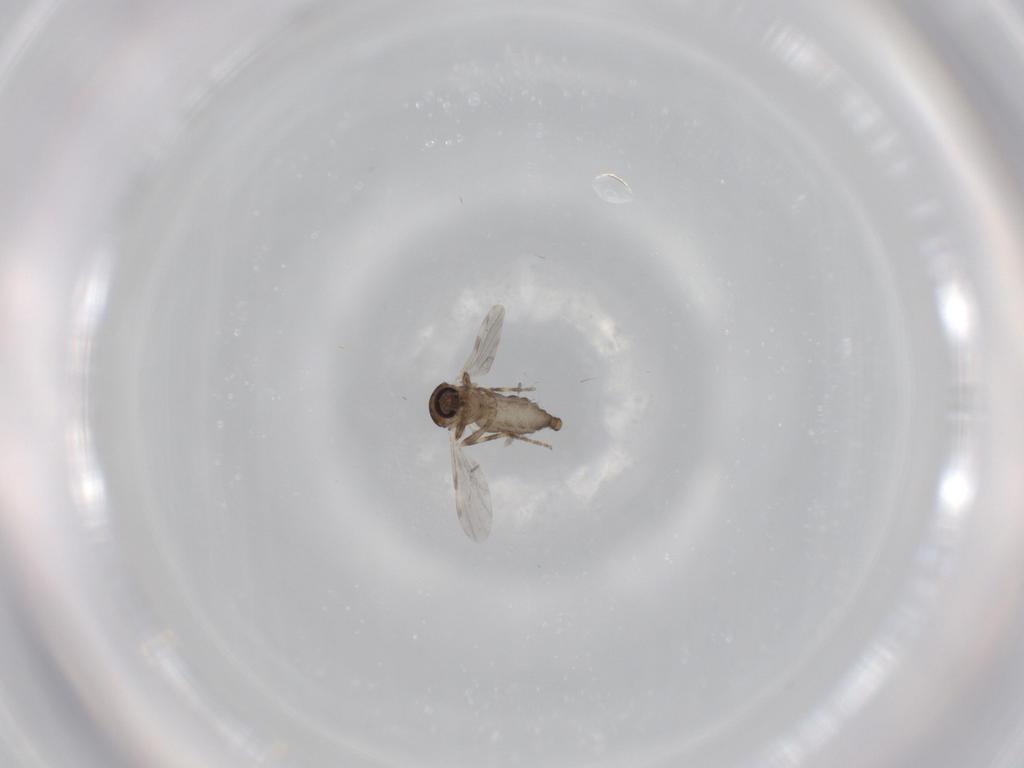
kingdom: Animalia
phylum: Arthropoda
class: Insecta
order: Diptera
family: Ceratopogonidae
